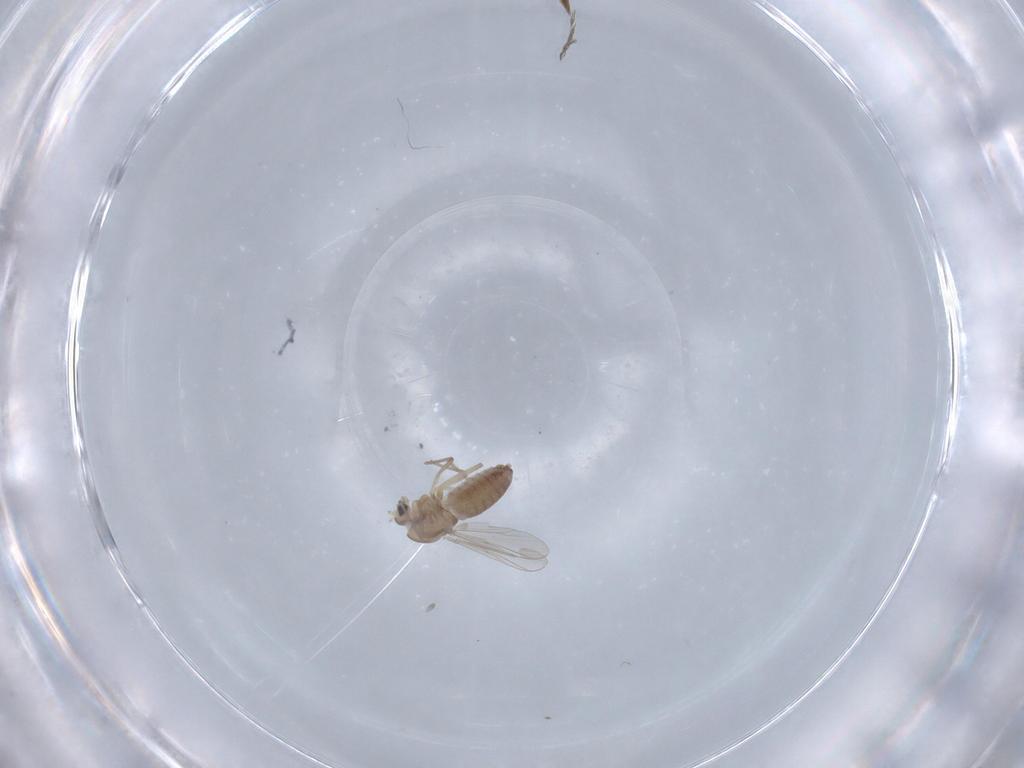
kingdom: Animalia
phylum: Arthropoda
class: Insecta
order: Diptera
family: Chironomidae
